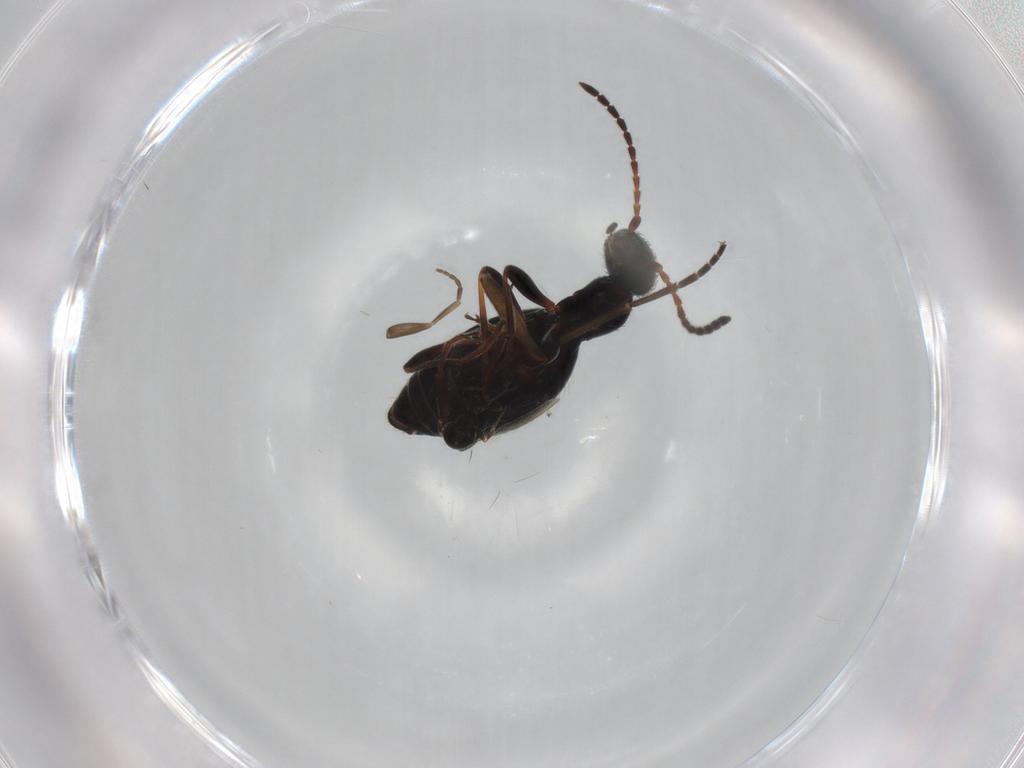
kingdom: Animalia
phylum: Arthropoda
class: Insecta
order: Coleoptera
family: Anthicidae
